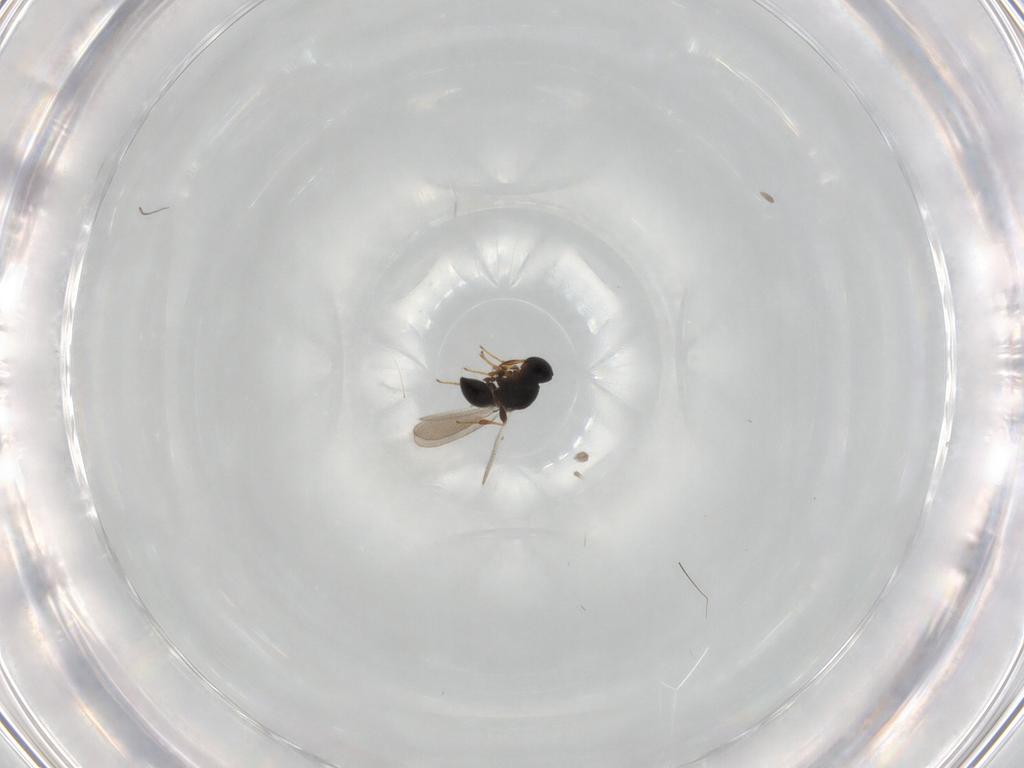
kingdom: Animalia
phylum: Arthropoda
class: Insecta
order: Hymenoptera
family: Platygastridae
